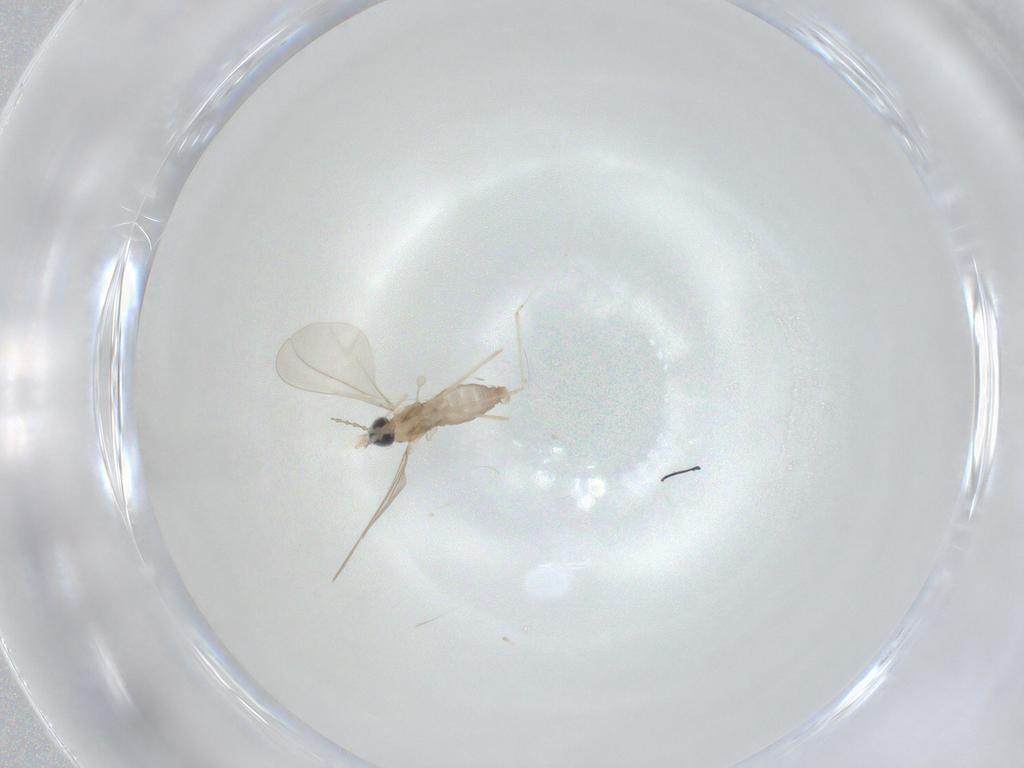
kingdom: Animalia
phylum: Arthropoda
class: Insecta
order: Diptera
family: Cecidomyiidae
